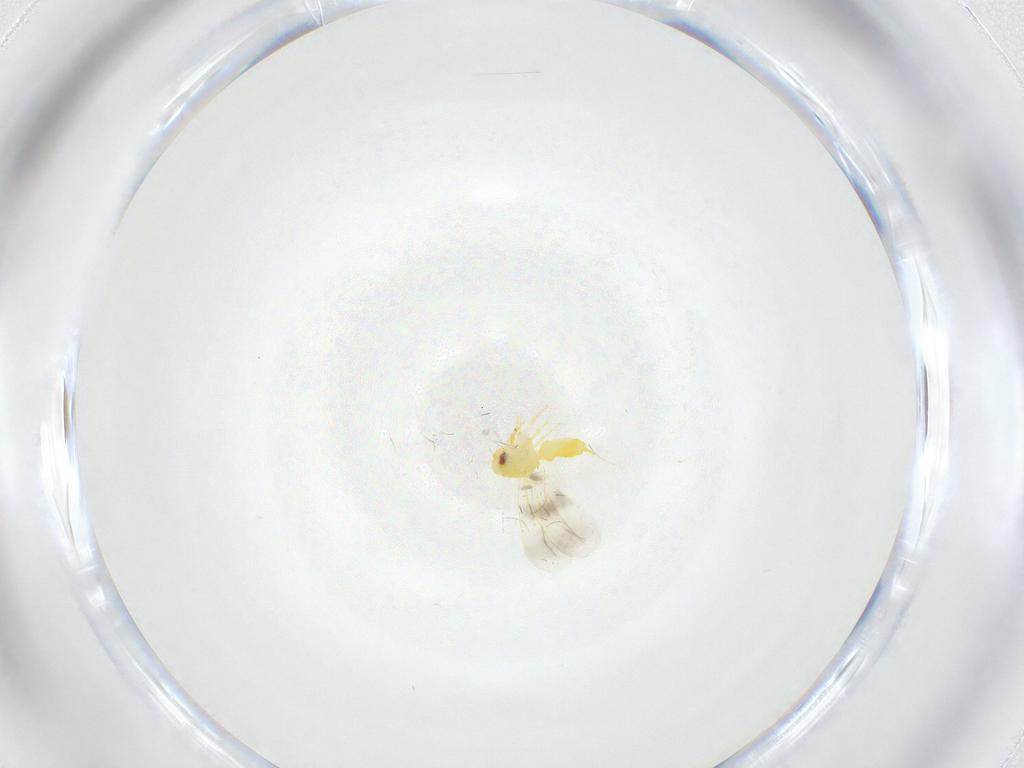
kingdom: Animalia
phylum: Arthropoda
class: Insecta
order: Hemiptera
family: Aleyrodidae
